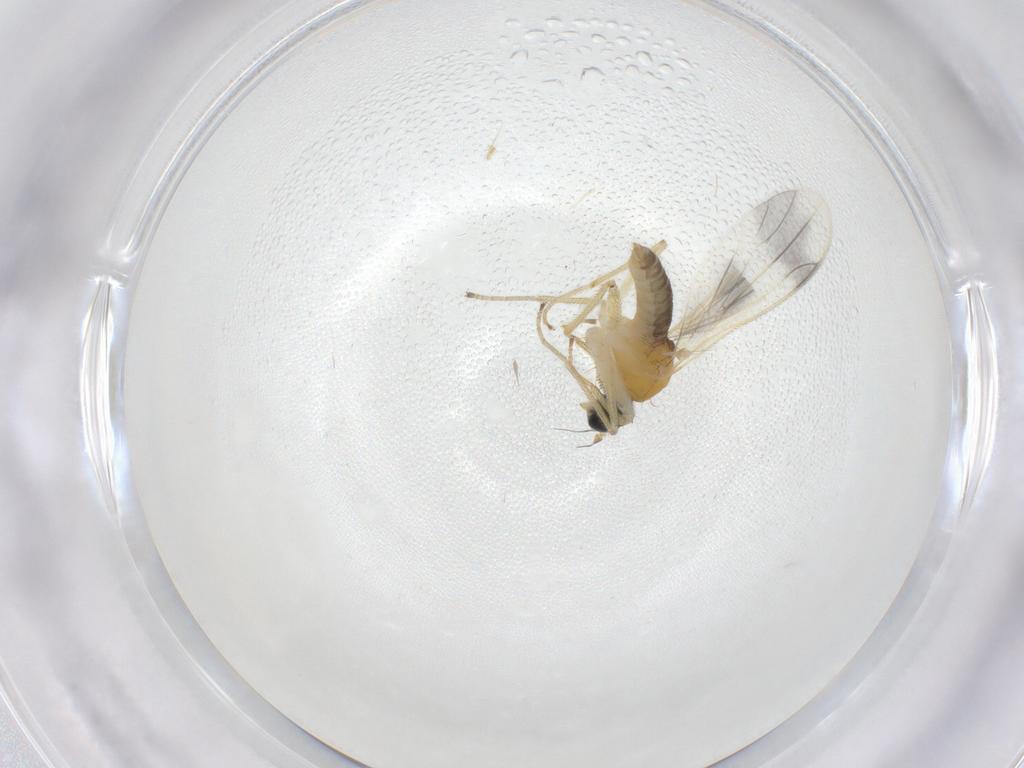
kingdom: Animalia
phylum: Arthropoda
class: Insecta
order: Diptera
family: Cecidomyiidae
